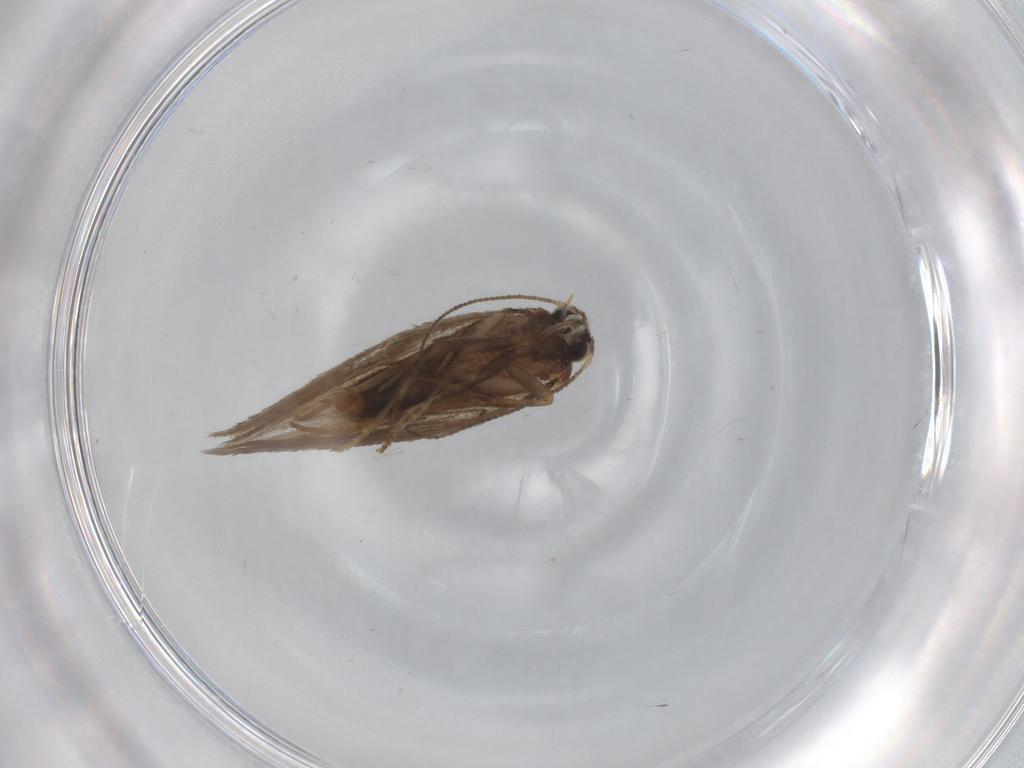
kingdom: Animalia
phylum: Arthropoda
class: Insecta
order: Lepidoptera
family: Nepticulidae
